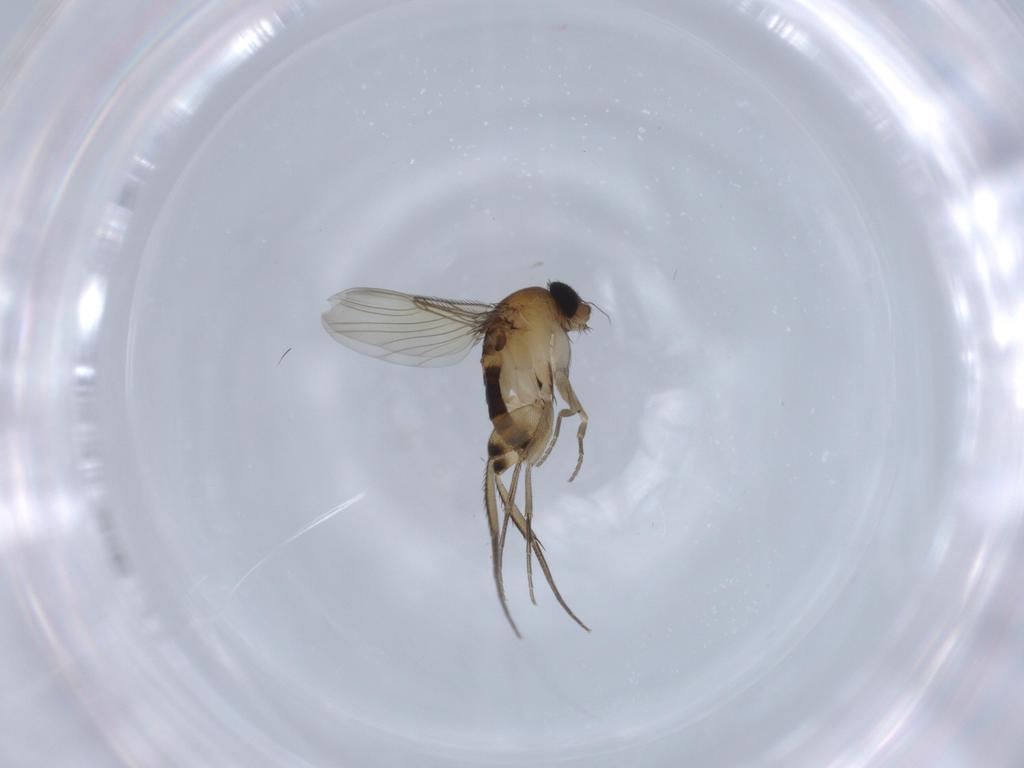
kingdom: Animalia
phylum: Arthropoda
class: Insecta
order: Diptera
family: Phoridae
